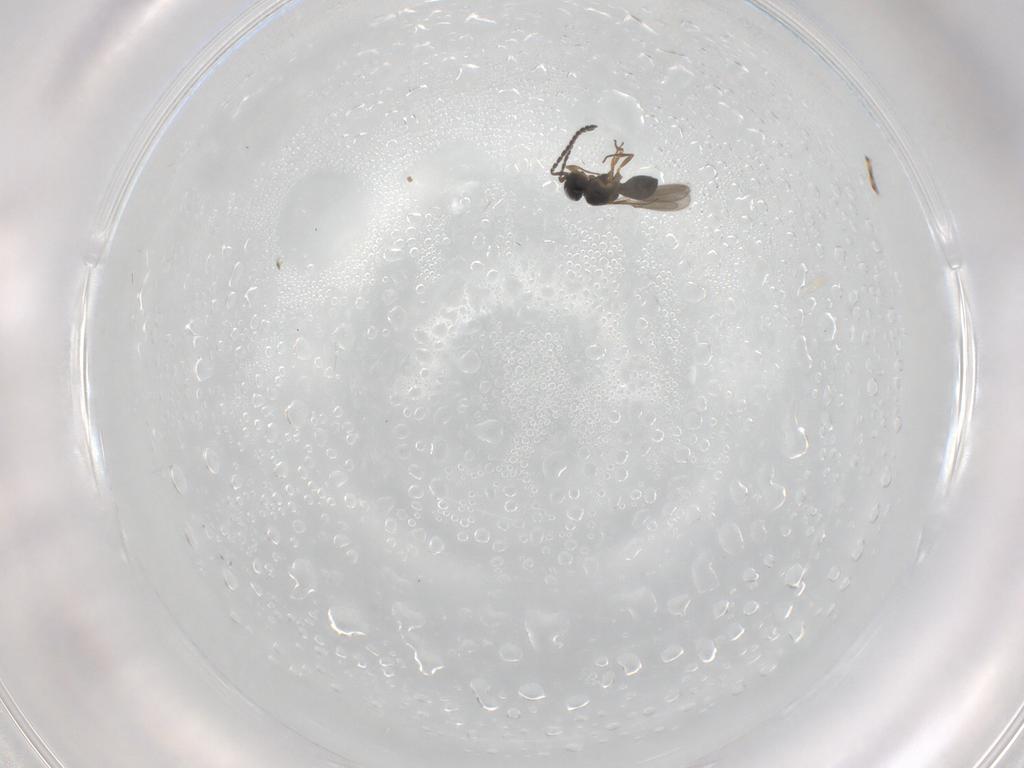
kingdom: Animalia
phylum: Arthropoda
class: Insecta
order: Hymenoptera
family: Scelionidae
